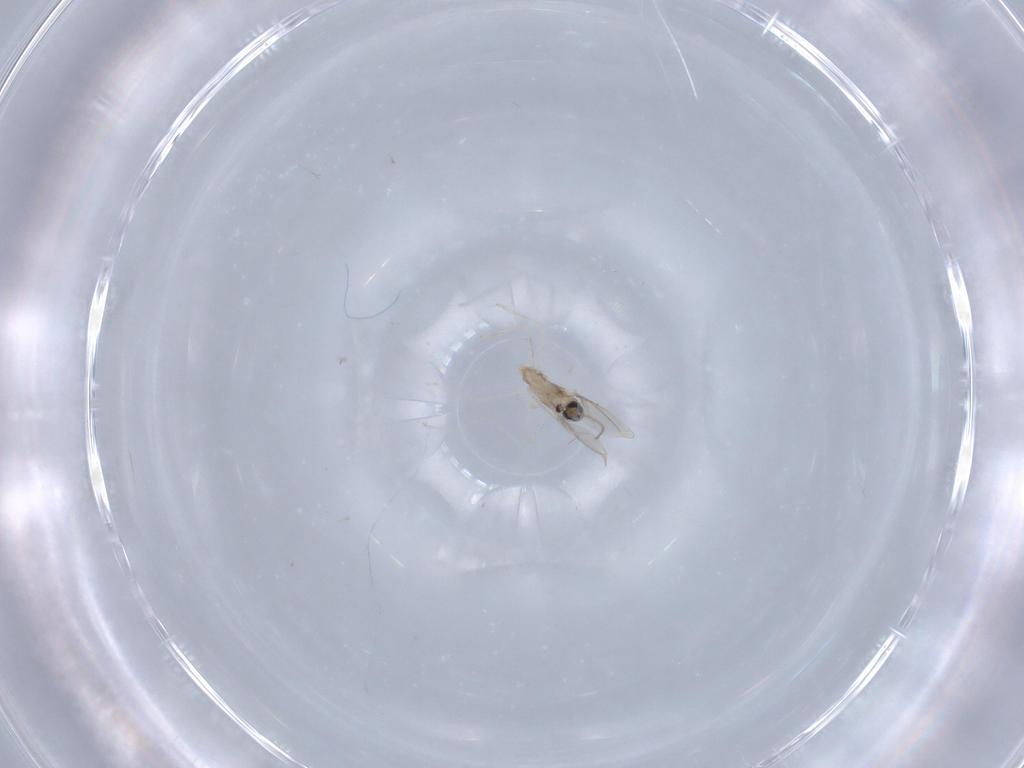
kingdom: Animalia
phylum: Arthropoda
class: Insecta
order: Diptera
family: Cecidomyiidae
